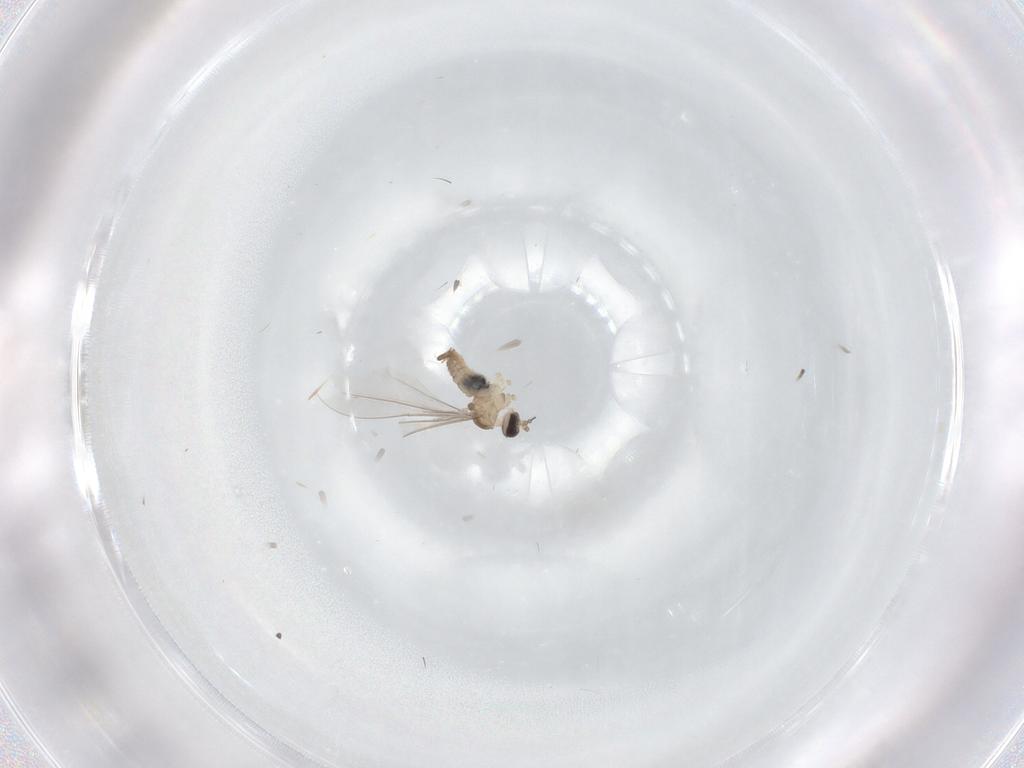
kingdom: Animalia
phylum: Arthropoda
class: Insecta
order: Diptera
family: Cecidomyiidae
